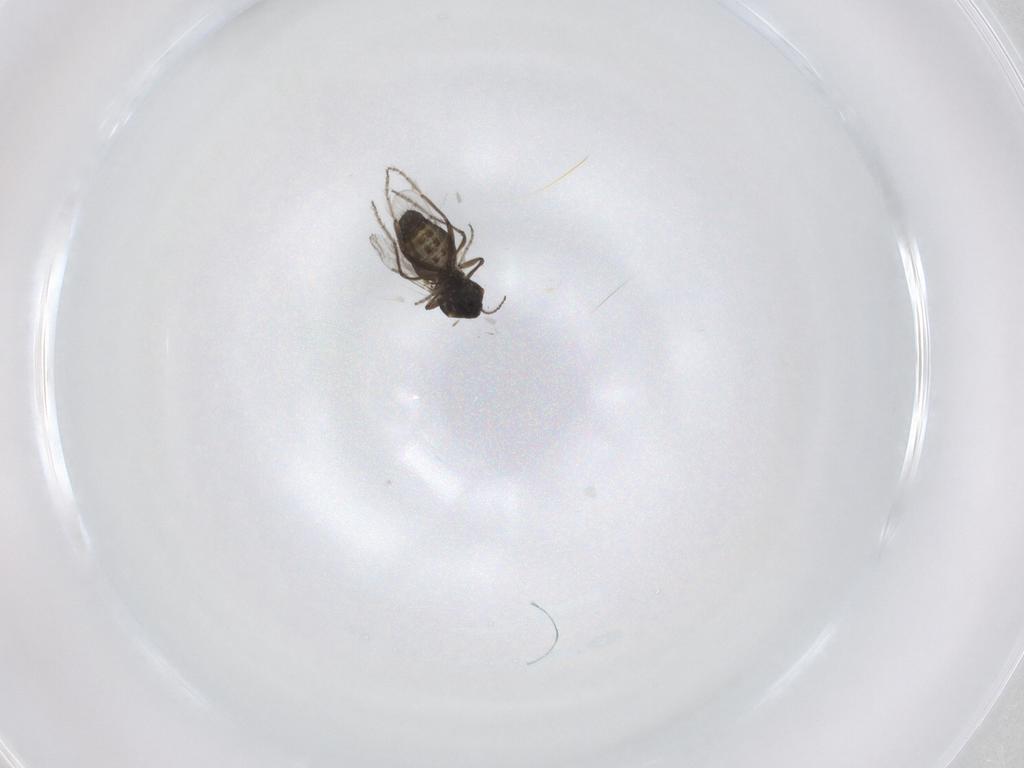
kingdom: Animalia
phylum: Arthropoda
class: Insecta
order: Diptera
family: Ceratopogonidae
